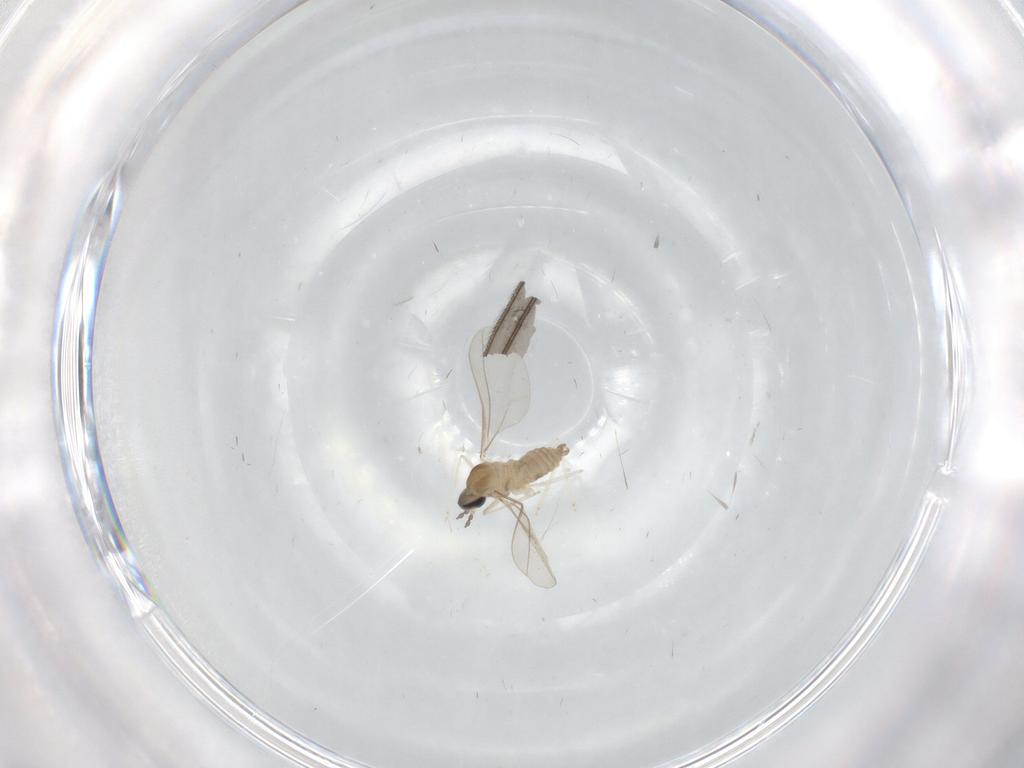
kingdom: Animalia
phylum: Arthropoda
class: Insecta
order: Diptera
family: Cecidomyiidae
